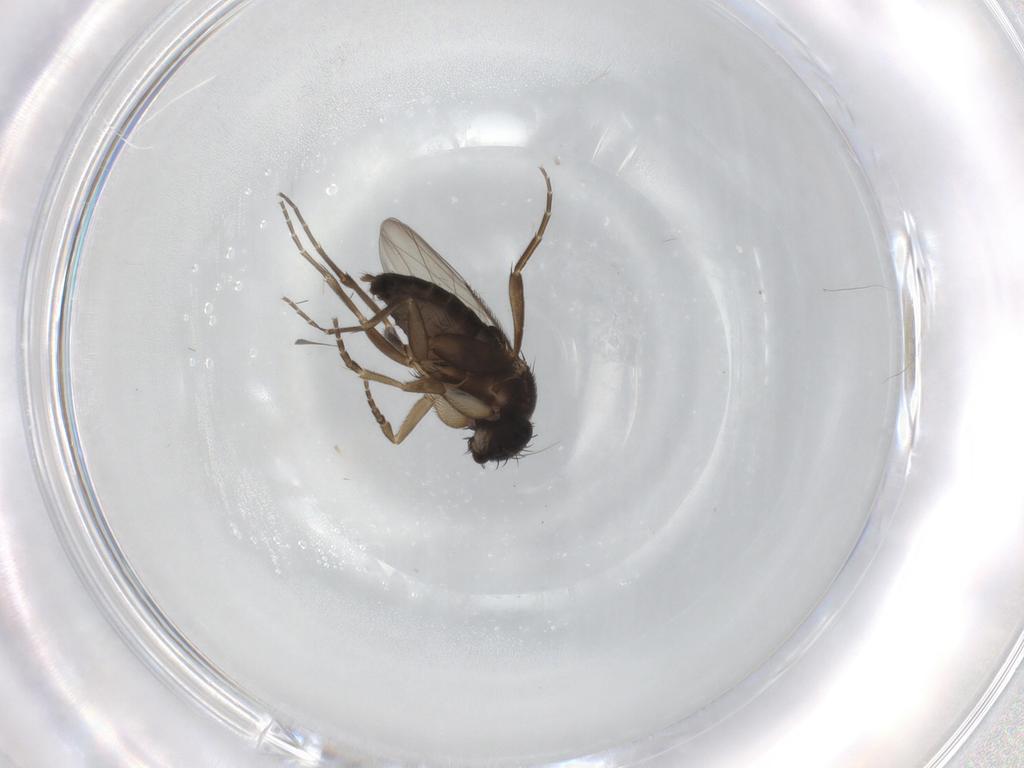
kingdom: Animalia
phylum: Arthropoda
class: Insecta
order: Diptera
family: Phoridae
